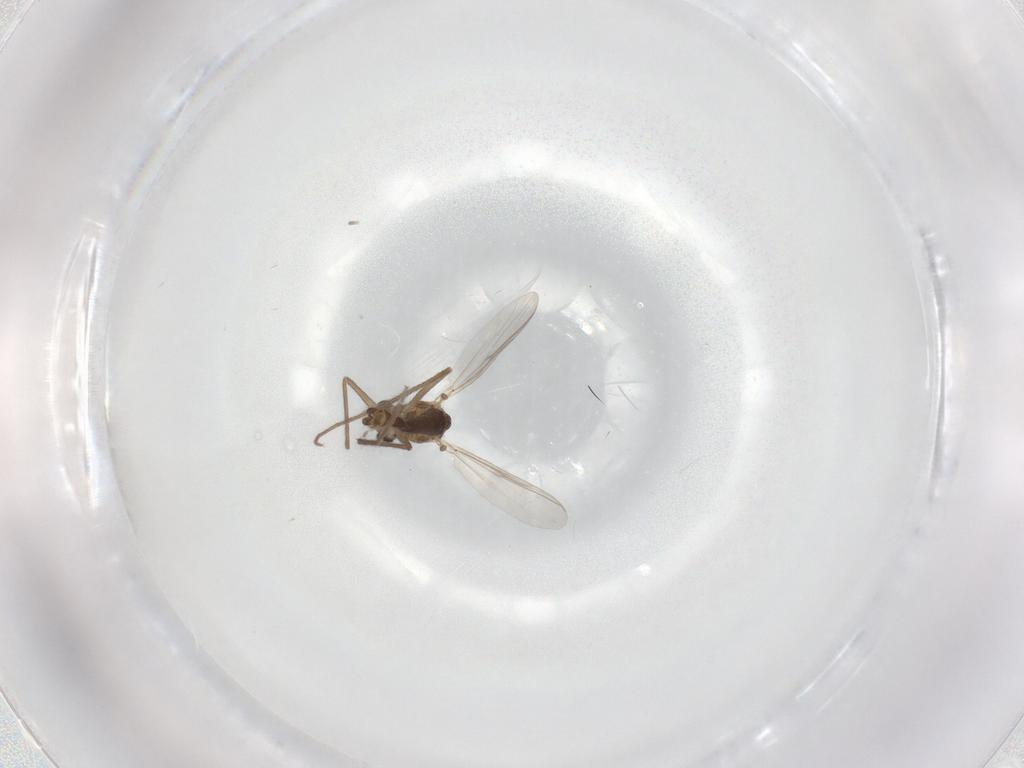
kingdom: Animalia
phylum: Arthropoda
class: Insecta
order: Diptera
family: Chironomidae
